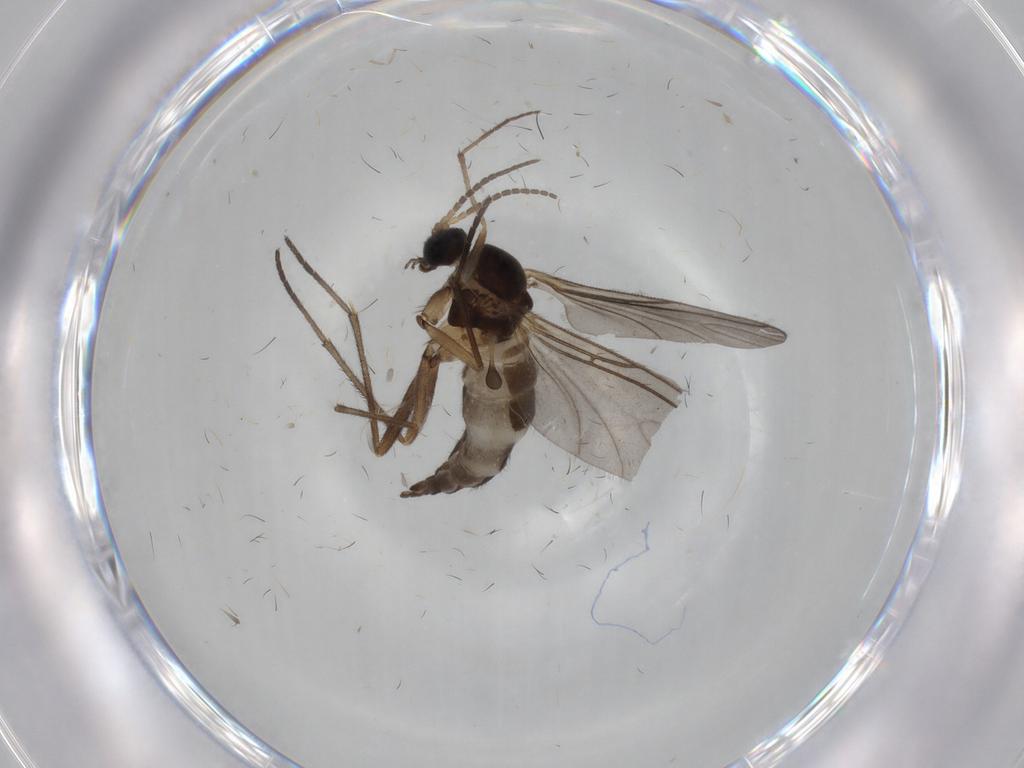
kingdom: Animalia
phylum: Arthropoda
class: Insecta
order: Diptera
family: Sciaridae
